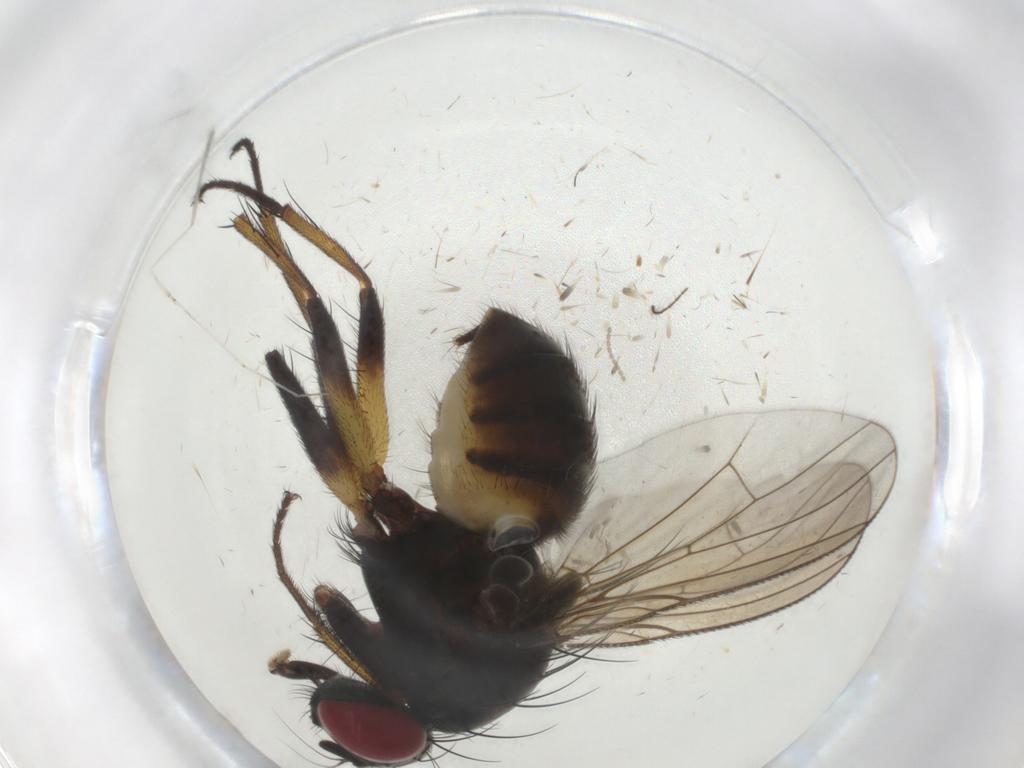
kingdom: Animalia
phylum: Arthropoda
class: Insecta
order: Diptera
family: Muscidae
